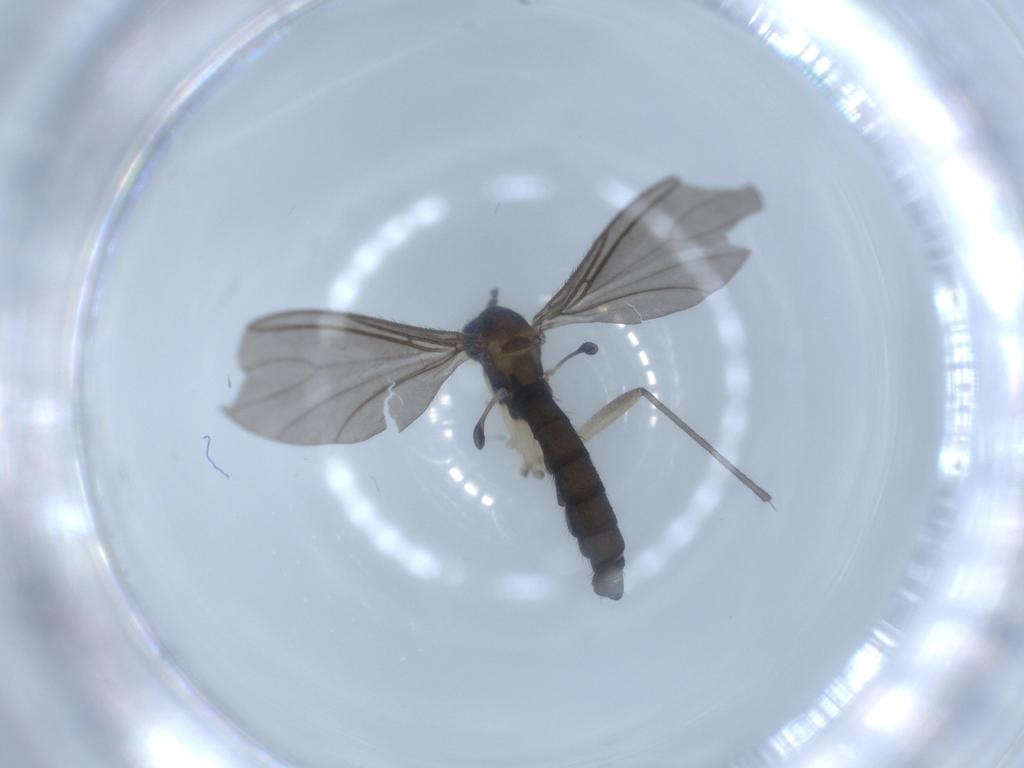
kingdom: Animalia
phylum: Arthropoda
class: Insecta
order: Diptera
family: Sciaridae
